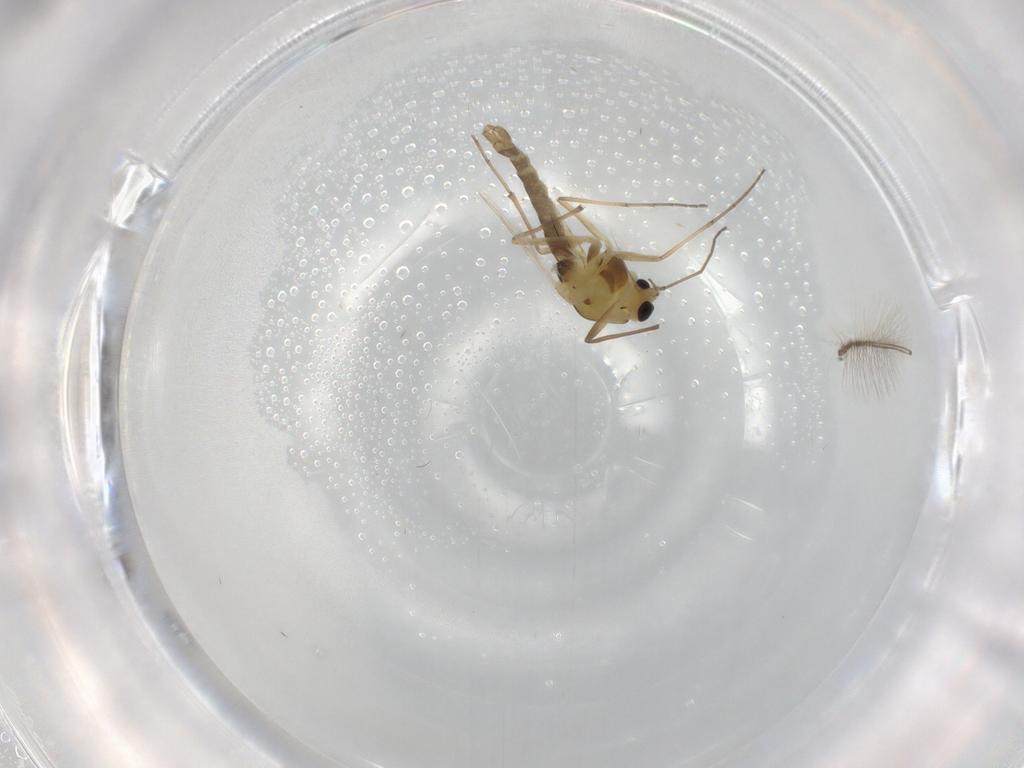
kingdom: Animalia
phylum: Arthropoda
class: Insecta
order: Diptera
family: Chironomidae
